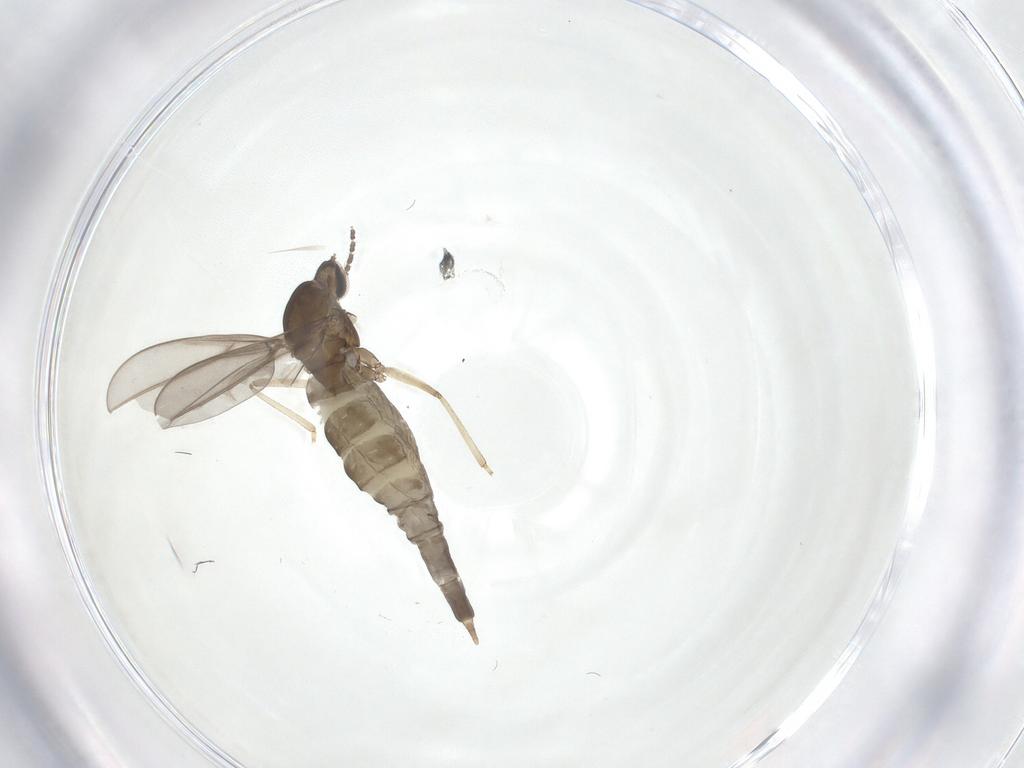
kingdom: Animalia
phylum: Arthropoda
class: Insecta
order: Diptera
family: Cecidomyiidae
